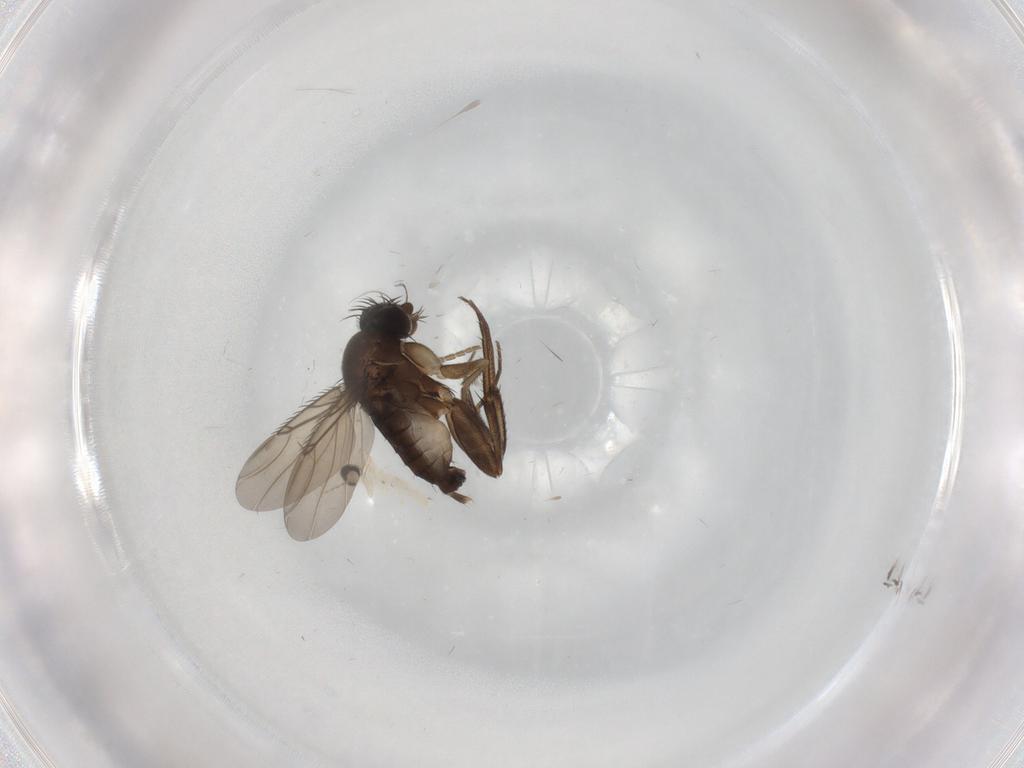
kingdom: Animalia
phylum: Arthropoda
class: Insecta
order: Diptera
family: Phoridae
